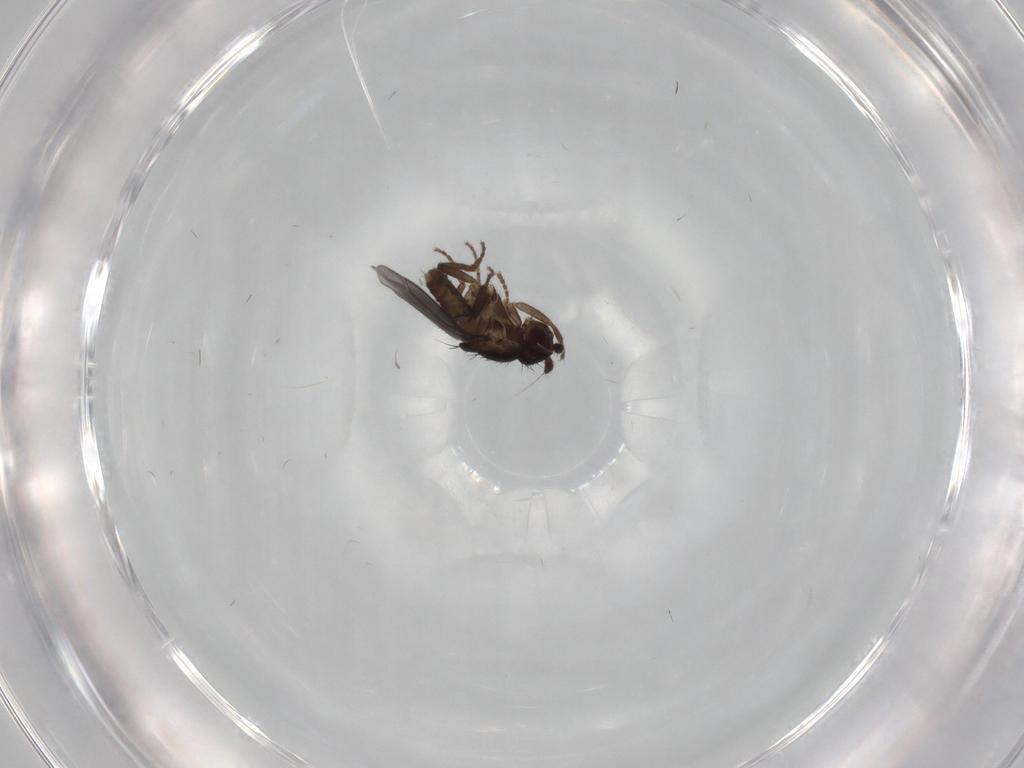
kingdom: Animalia
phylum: Arthropoda
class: Insecta
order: Diptera
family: Sphaeroceridae
